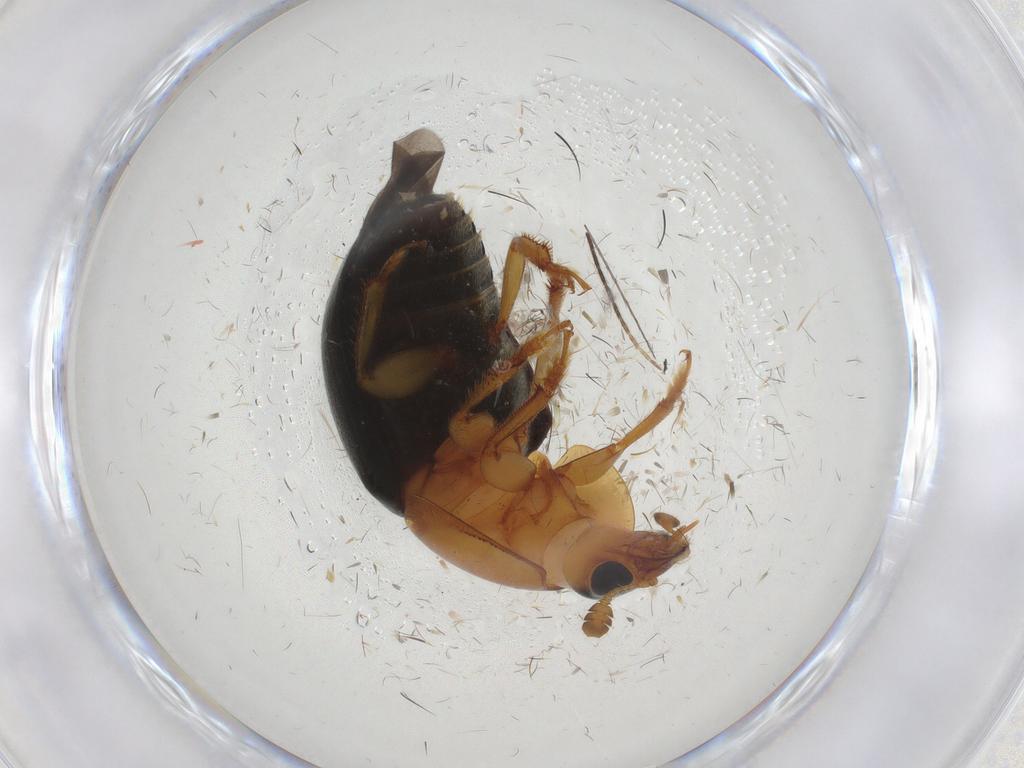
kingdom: Animalia
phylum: Arthropoda
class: Insecta
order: Coleoptera
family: Nitidulidae
